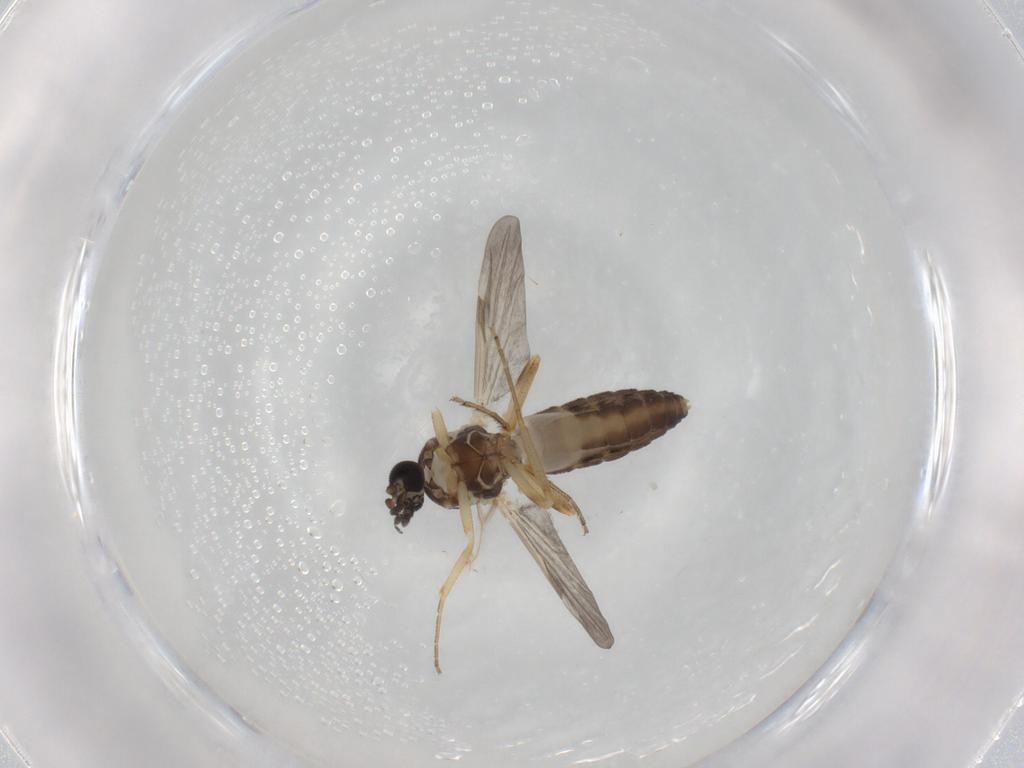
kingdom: Animalia
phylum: Arthropoda
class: Insecta
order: Diptera
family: Ceratopogonidae
